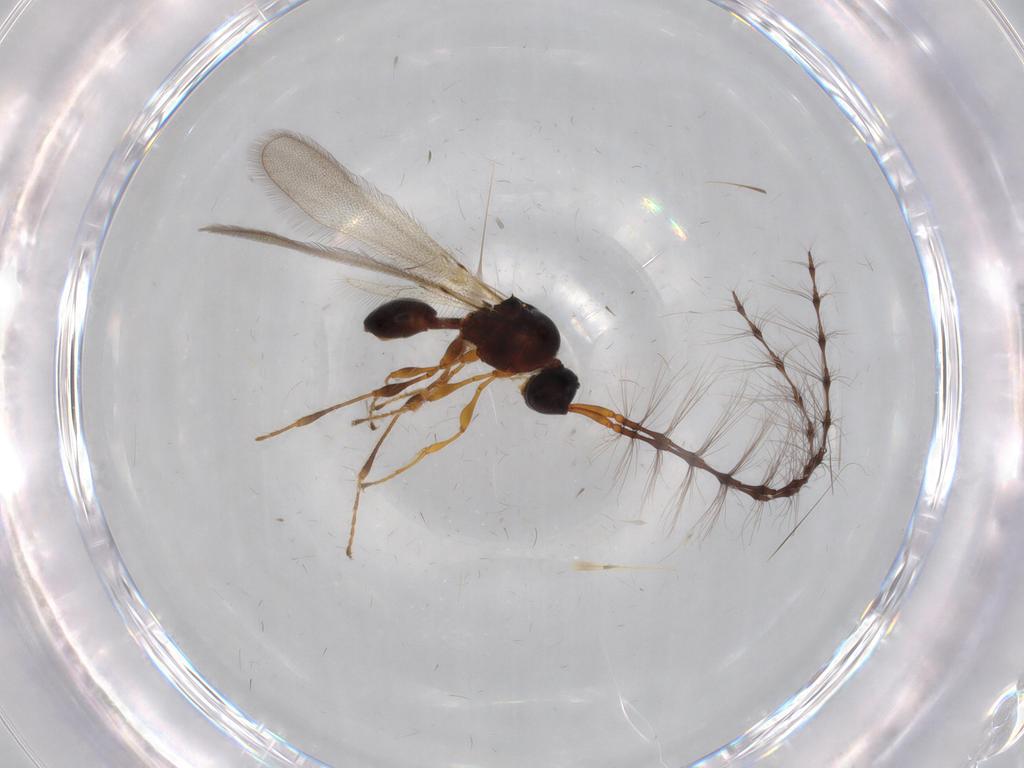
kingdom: Animalia
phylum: Arthropoda
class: Insecta
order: Hymenoptera
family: Diapriidae
